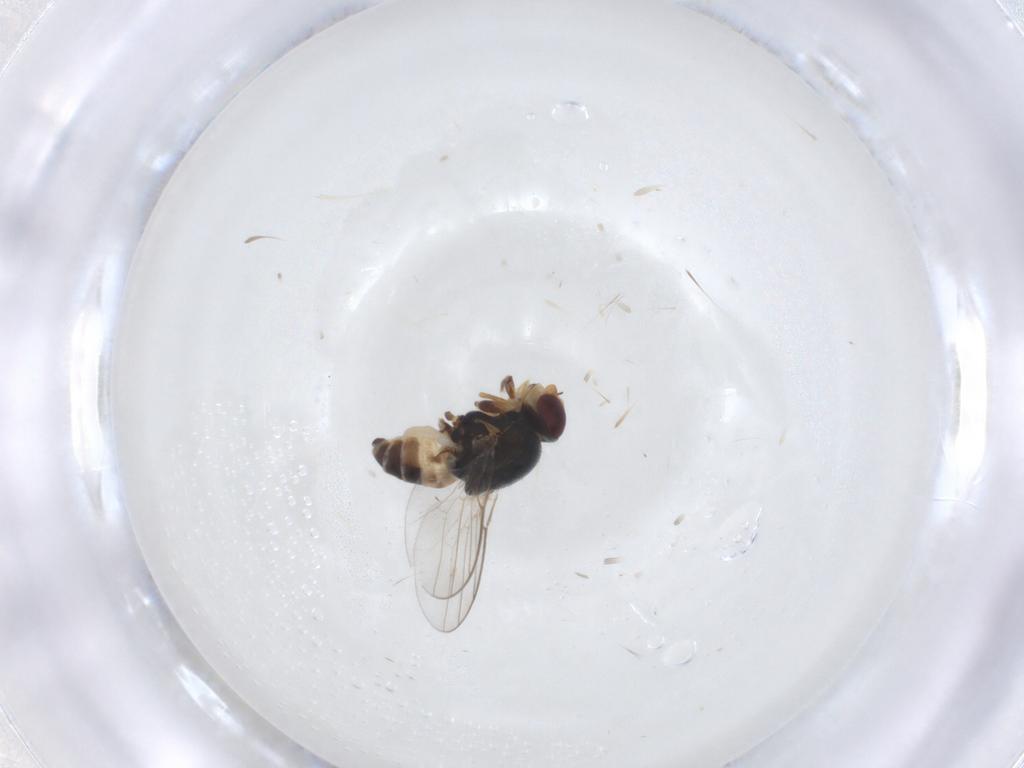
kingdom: Animalia
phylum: Arthropoda
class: Insecta
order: Diptera
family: Chloropidae
